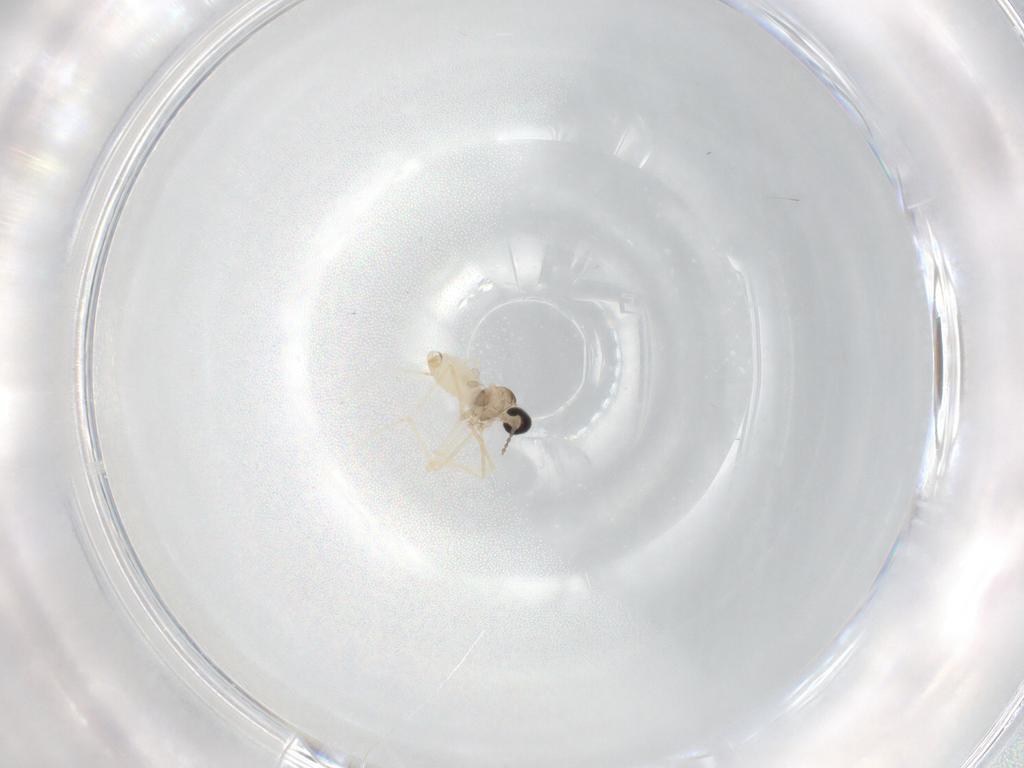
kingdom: Animalia
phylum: Arthropoda
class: Insecta
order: Diptera
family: Cecidomyiidae
